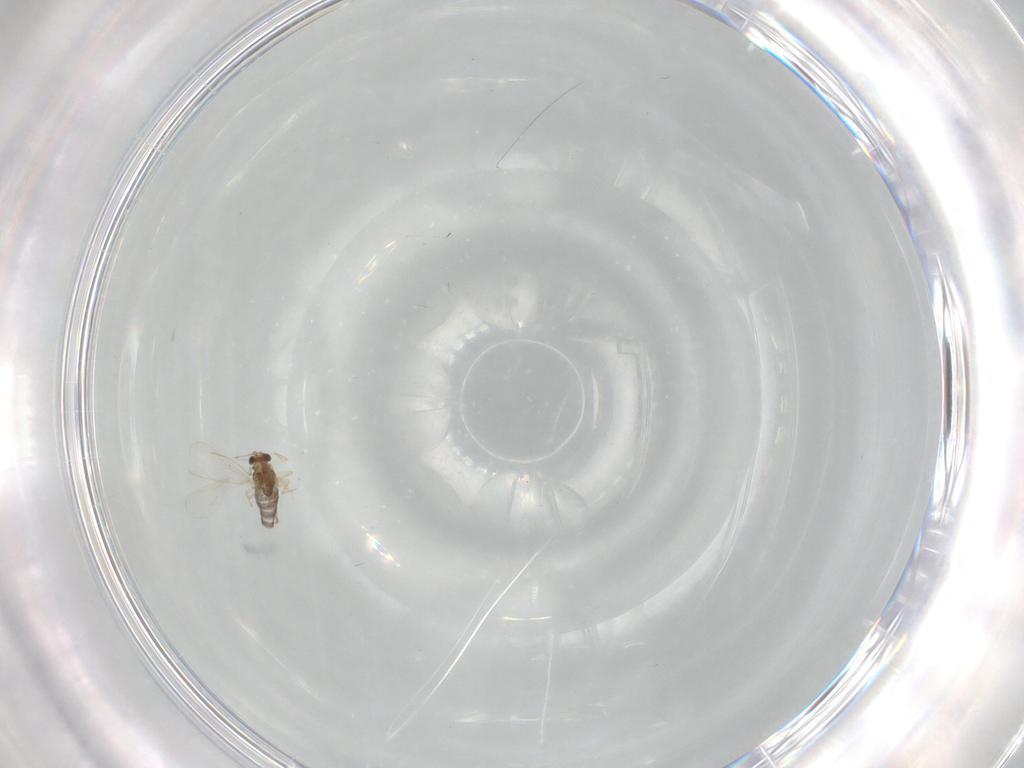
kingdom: Animalia
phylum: Arthropoda
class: Insecta
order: Diptera
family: Chironomidae
